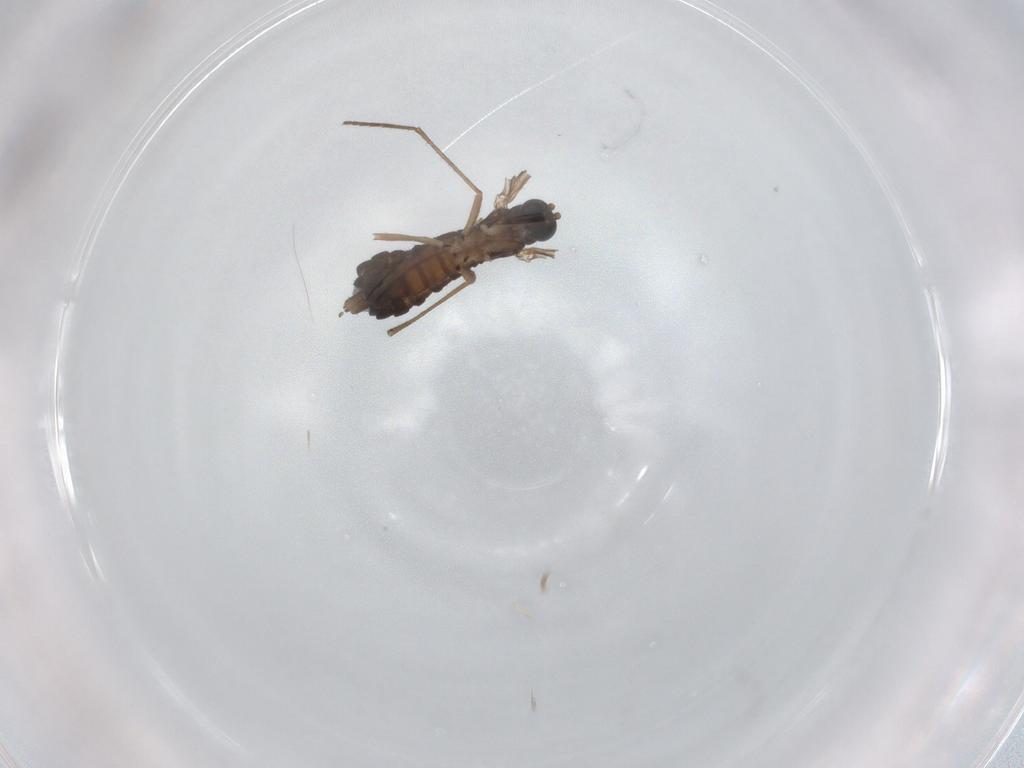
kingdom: Animalia
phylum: Arthropoda
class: Insecta
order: Diptera
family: Sciaridae
